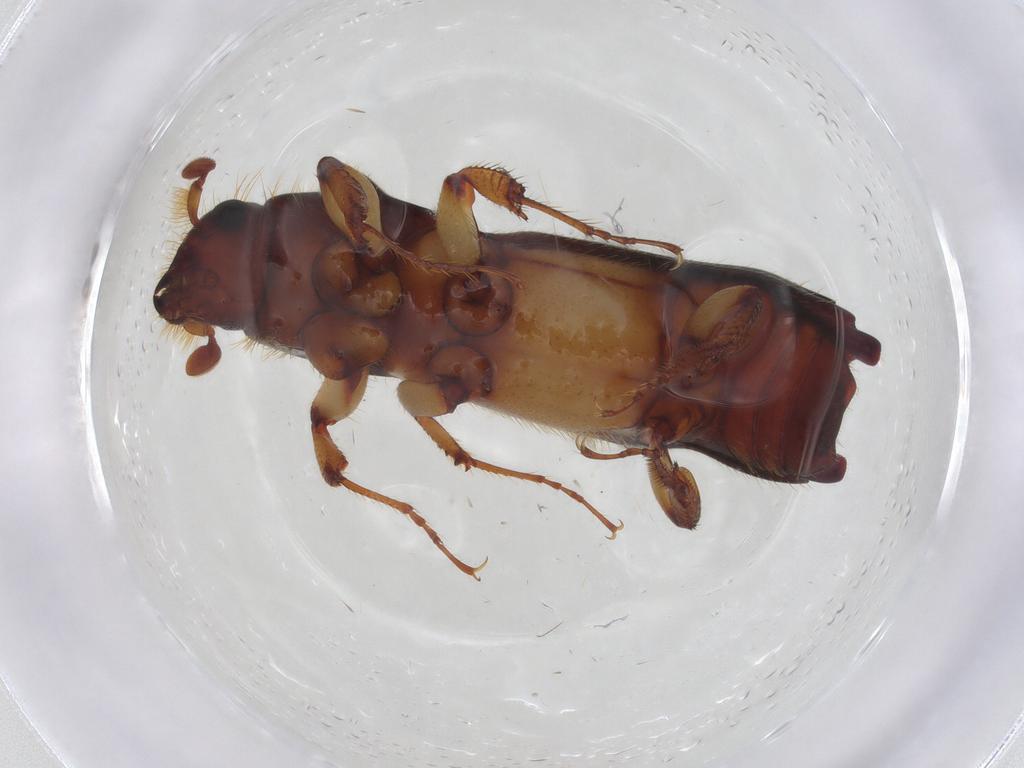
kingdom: Animalia
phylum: Arthropoda
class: Insecta
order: Coleoptera
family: Curculionidae
